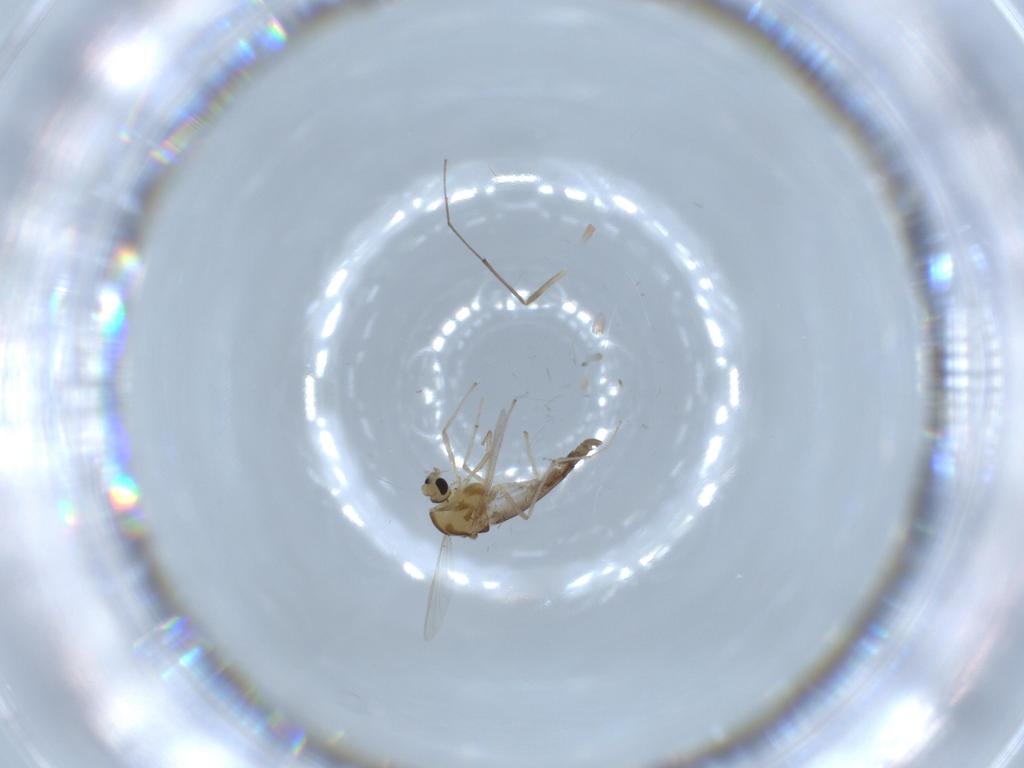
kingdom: Animalia
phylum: Arthropoda
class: Insecta
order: Diptera
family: Chironomidae
